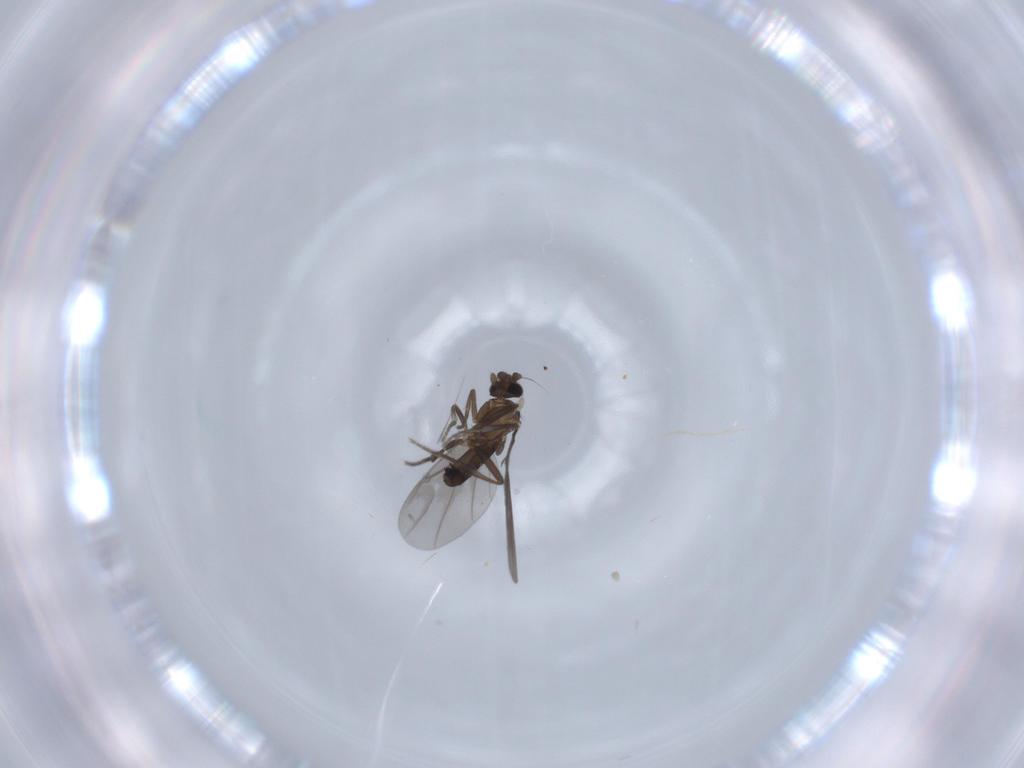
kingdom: Animalia
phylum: Arthropoda
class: Insecta
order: Diptera
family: Phoridae
